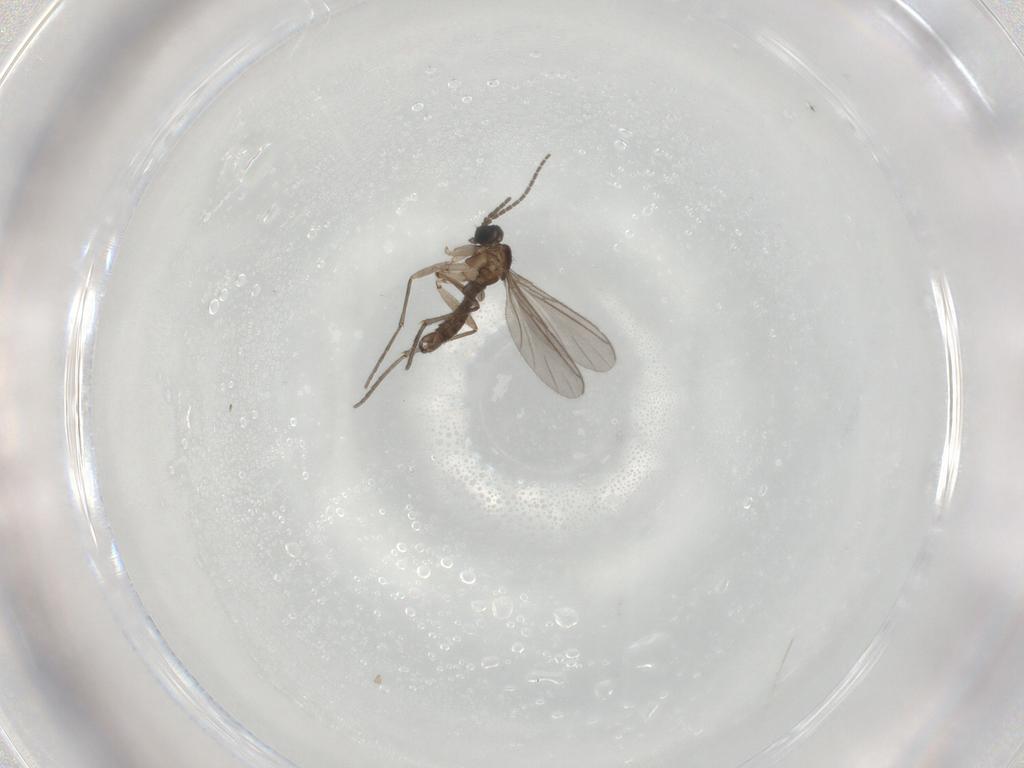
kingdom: Animalia
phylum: Arthropoda
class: Insecta
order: Diptera
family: Sciaridae
